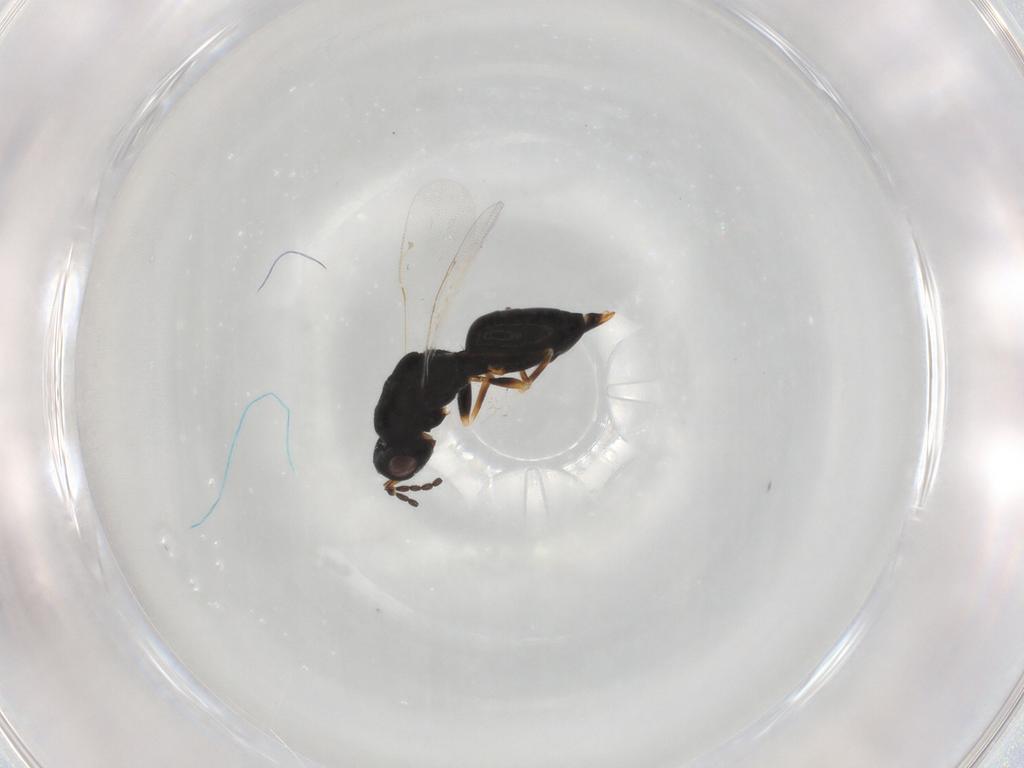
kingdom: Animalia
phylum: Arthropoda
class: Insecta
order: Hymenoptera
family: Eurytomidae
